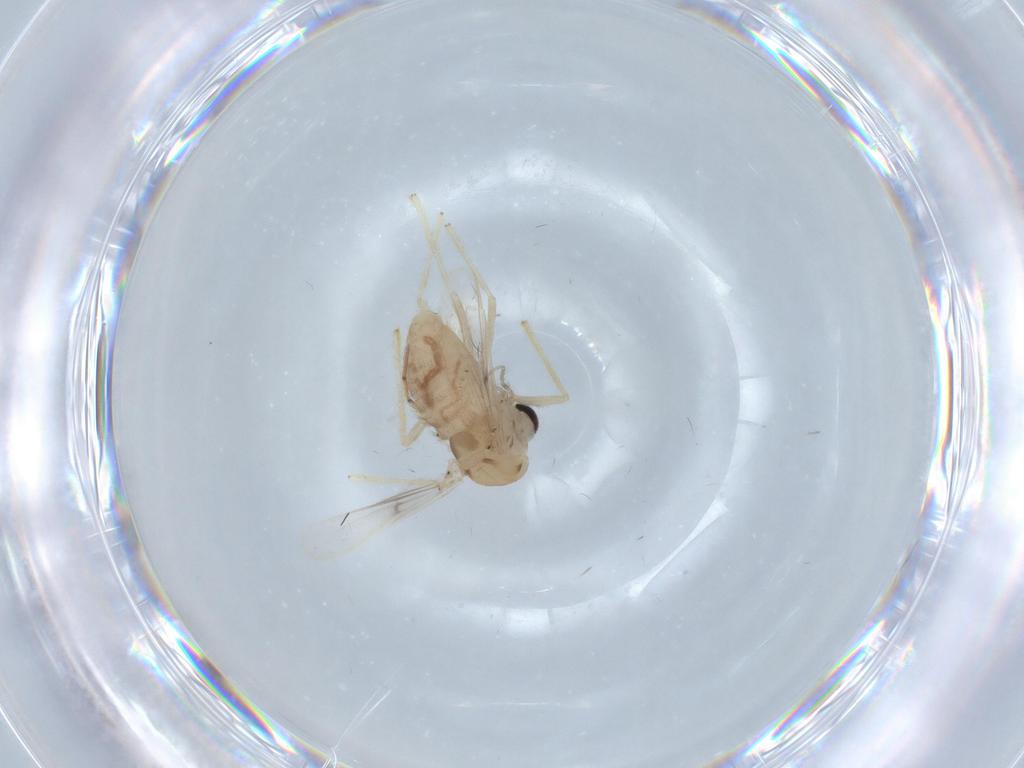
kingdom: Animalia
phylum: Arthropoda
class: Insecta
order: Diptera
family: Chironomidae
